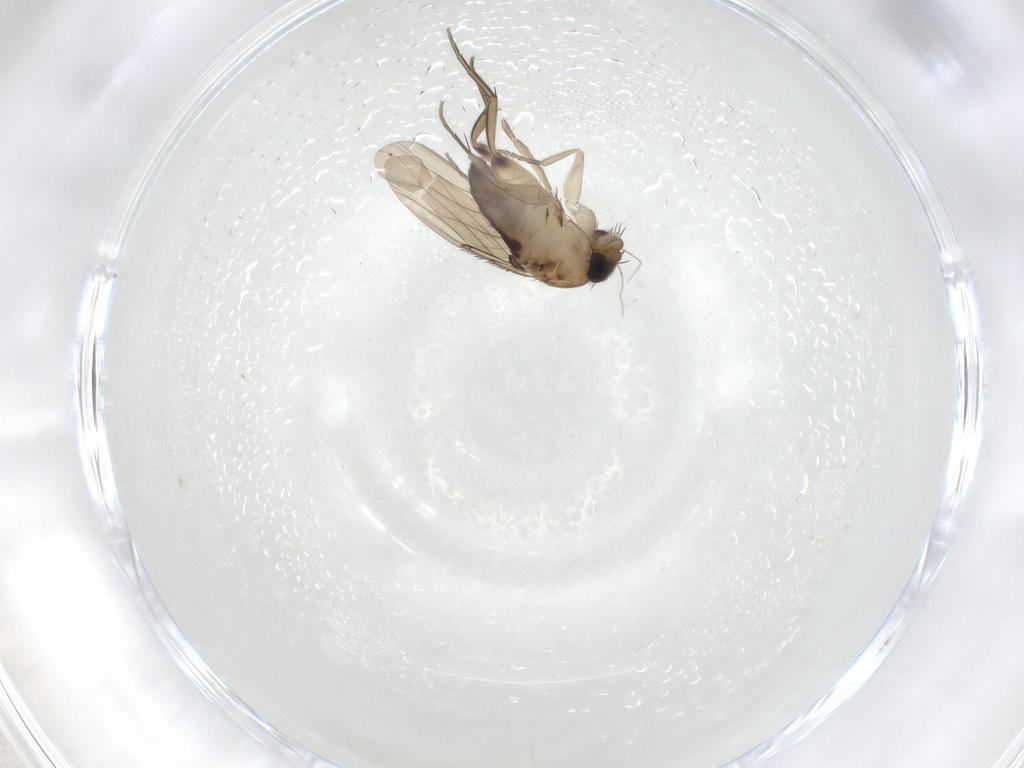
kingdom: Animalia
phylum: Arthropoda
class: Insecta
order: Diptera
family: Phoridae
